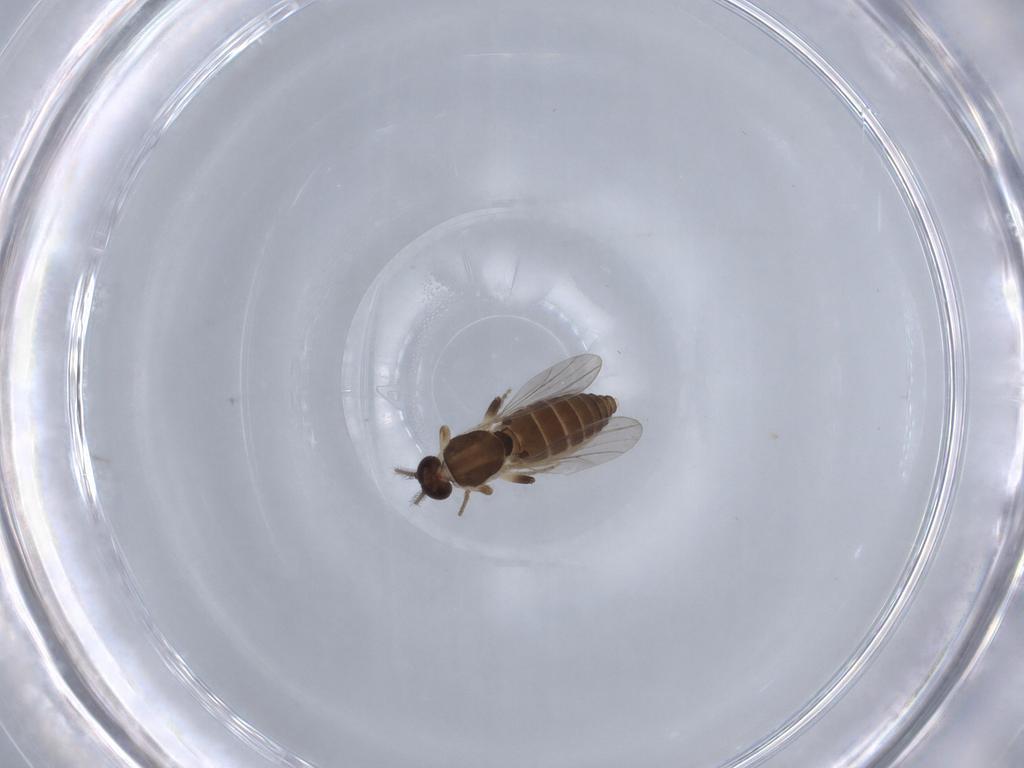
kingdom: Animalia
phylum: Arthropoda
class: Insecta
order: Diptera
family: Ceratopogonidae
